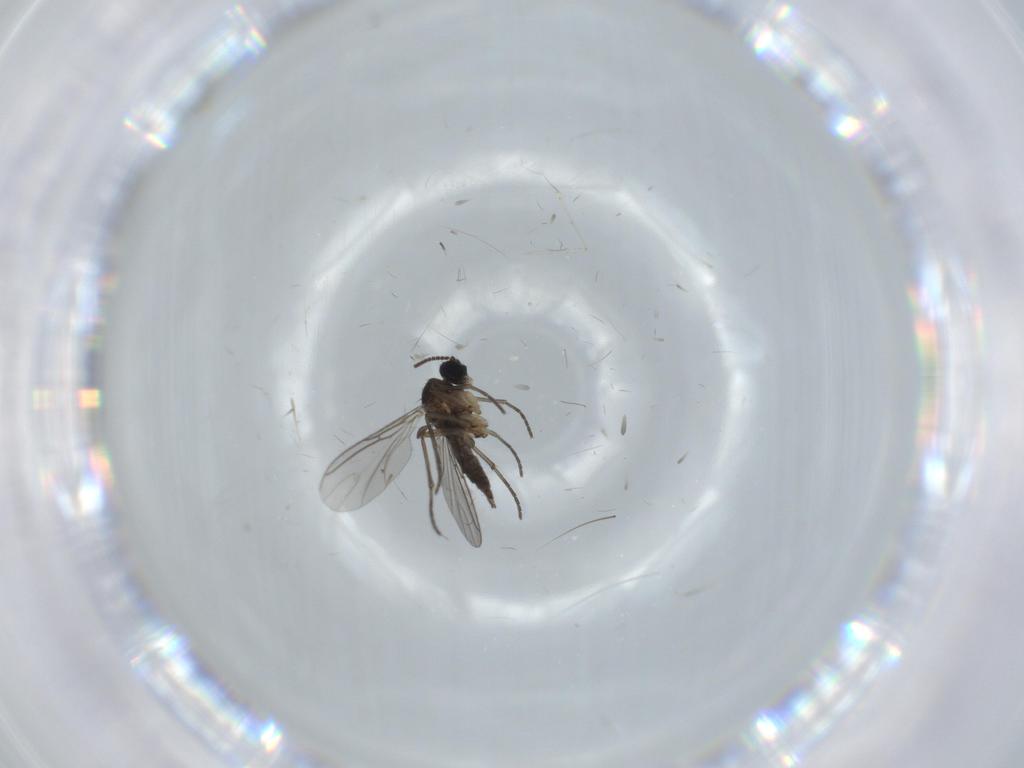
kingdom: Animalia
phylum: Arthropoda
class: Insecta
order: Diptera
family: Sciaridae
